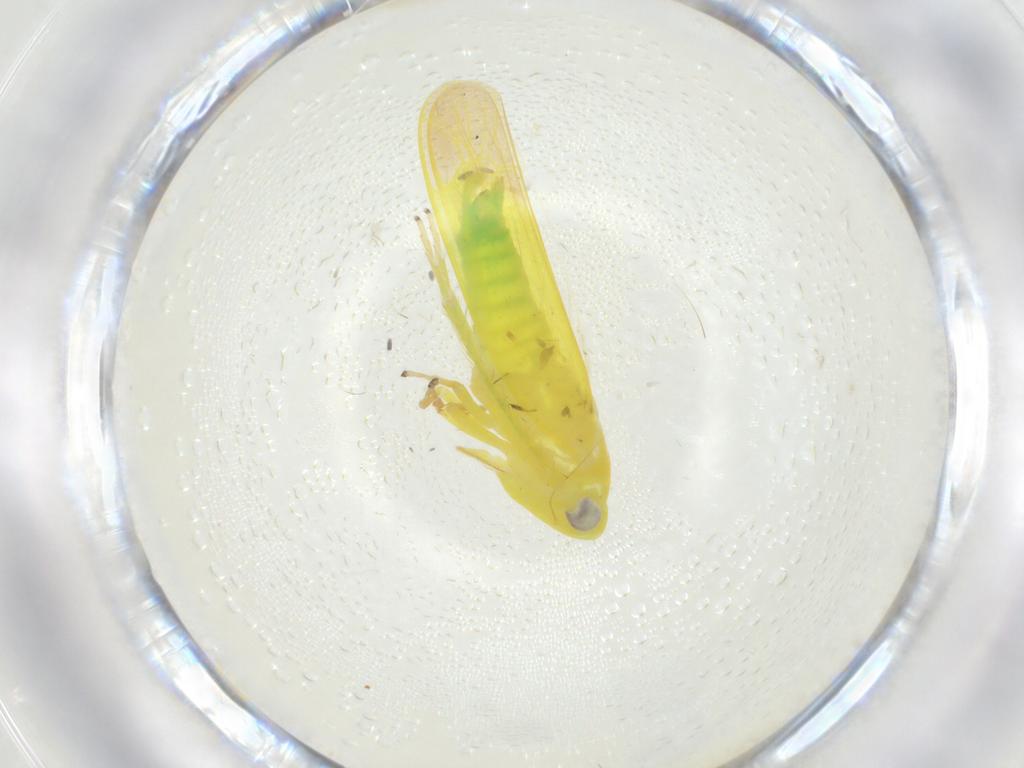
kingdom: Animalia
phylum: Arthropoda
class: Insecta
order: Hemiptera
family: Cicadellidae
